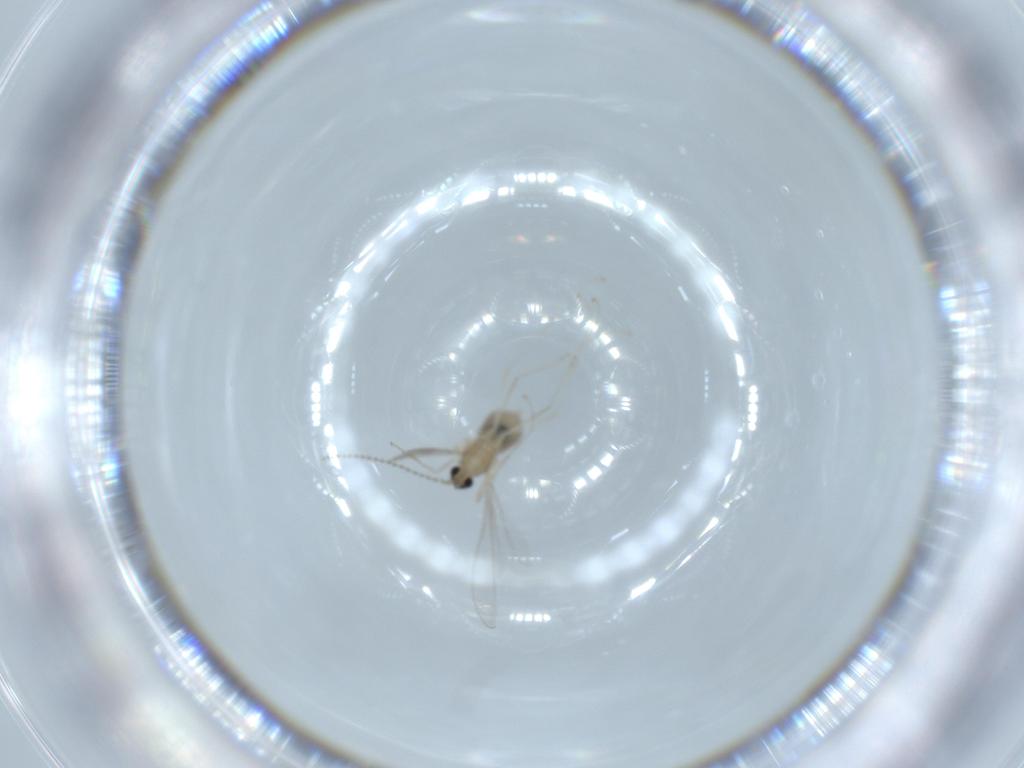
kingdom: Animalia
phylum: Arthropoda
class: Insecta
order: Diptera
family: Cecidomyiidae
